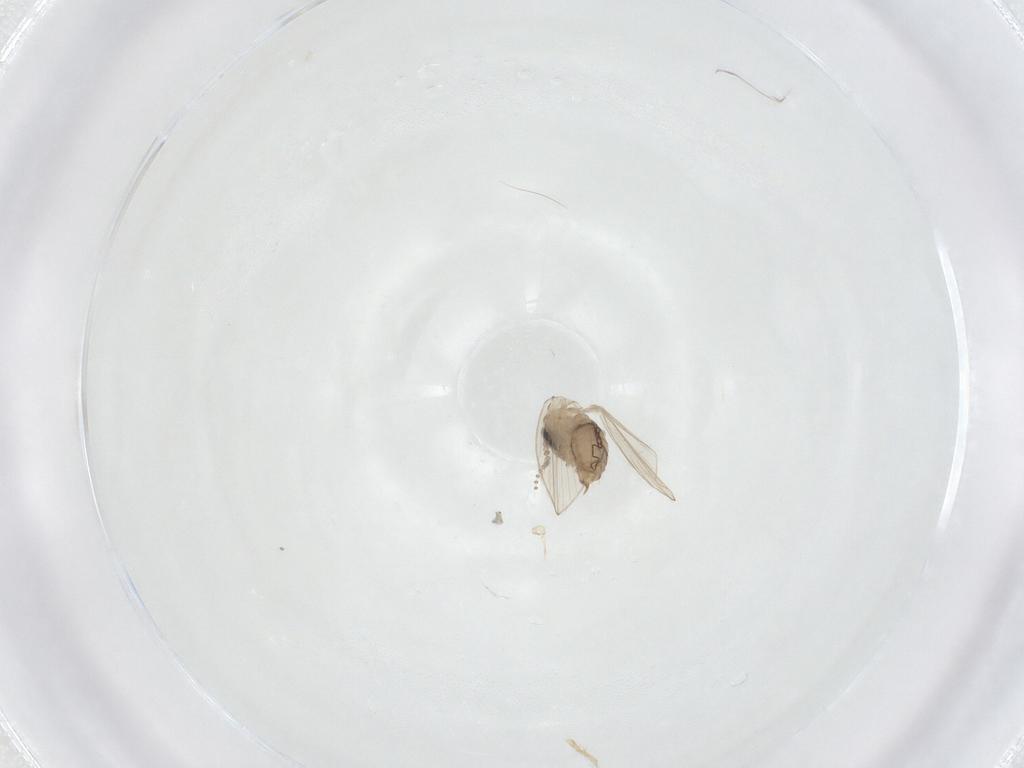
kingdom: Animalia
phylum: Arthropoda
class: Insecta
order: Diptera
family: Psychodidae
